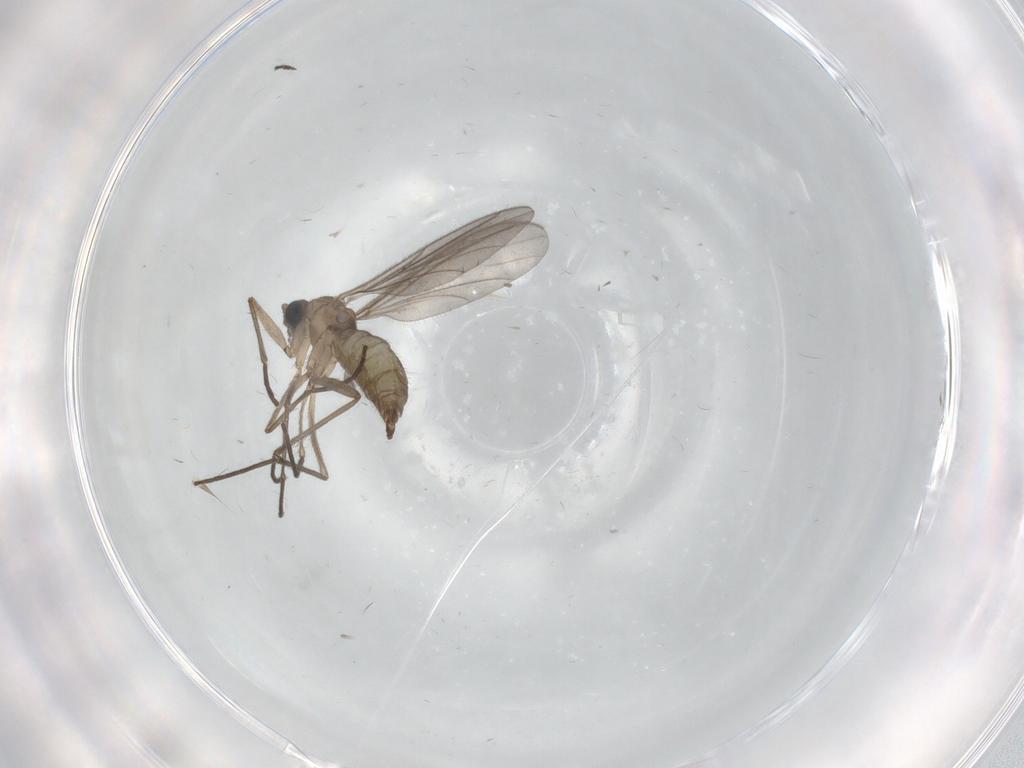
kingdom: Animalia
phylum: Arthropoda
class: Insecta
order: Diptera
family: Sciaridae
